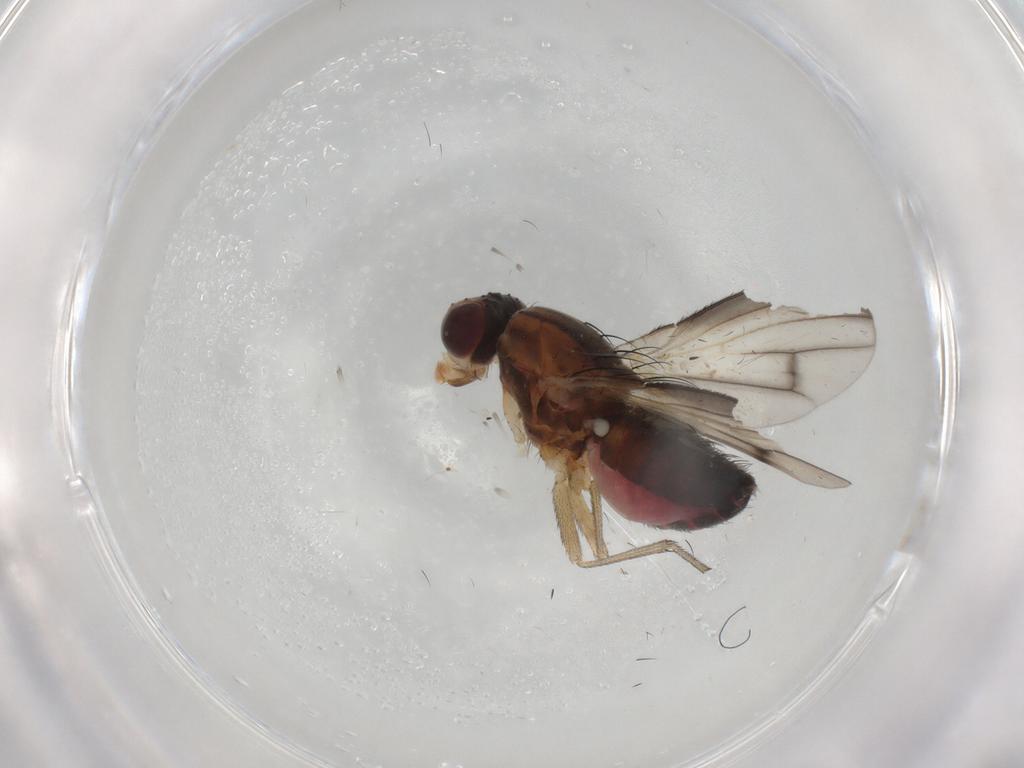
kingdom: Animalia
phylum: Arthropoda
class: Insecta
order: Diptera
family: Lauxaniidae
